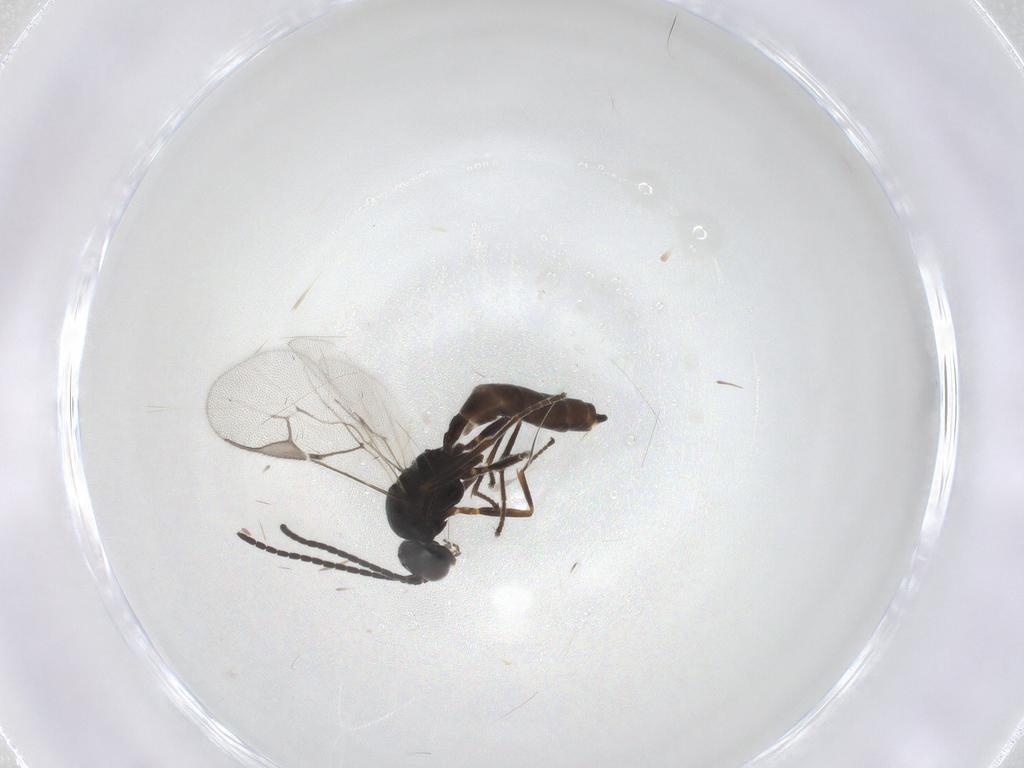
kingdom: Animalia
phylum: Arthropoda
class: Insecta
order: Hymenoptera
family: Braconidae
